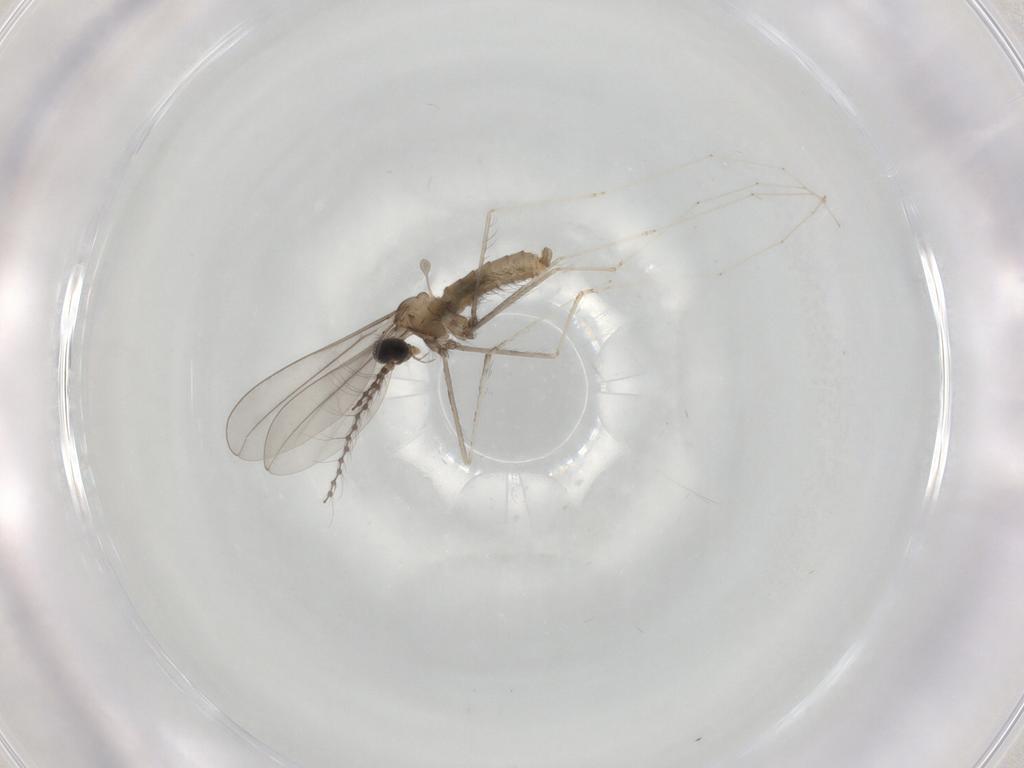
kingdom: Animalia
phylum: Arthropoda
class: Insecta
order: Diptera
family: Cecidomyiidae
